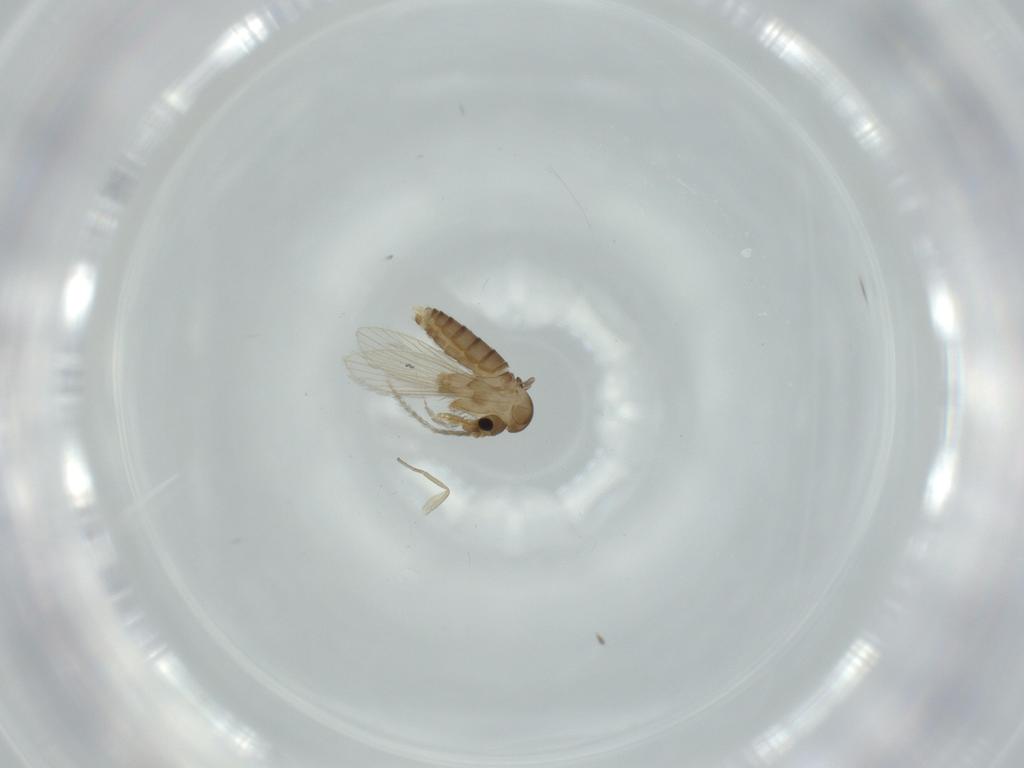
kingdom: Animalia
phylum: Arthropoda
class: Insecta
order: Diptera
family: Psychodidae
